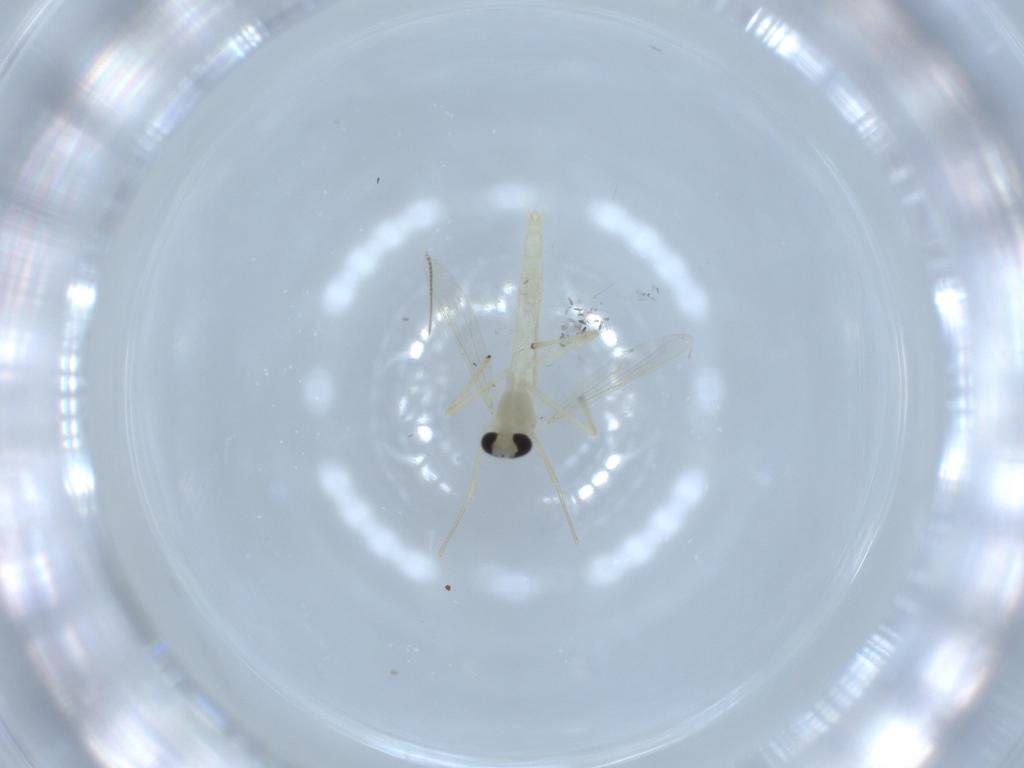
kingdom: Animalia
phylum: Arthropoda
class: Insecta
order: Diptera
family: Chironomidae
